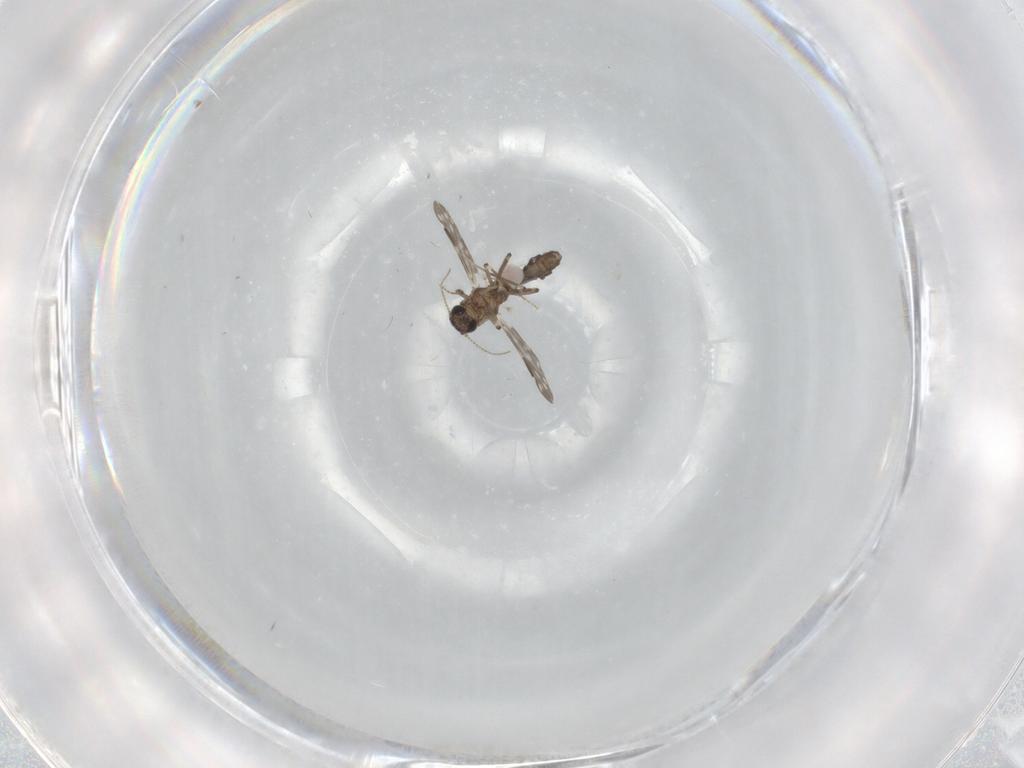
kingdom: Animalia
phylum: Arthropoda
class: Insecta
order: Diptera
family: Ceratopogonidae
